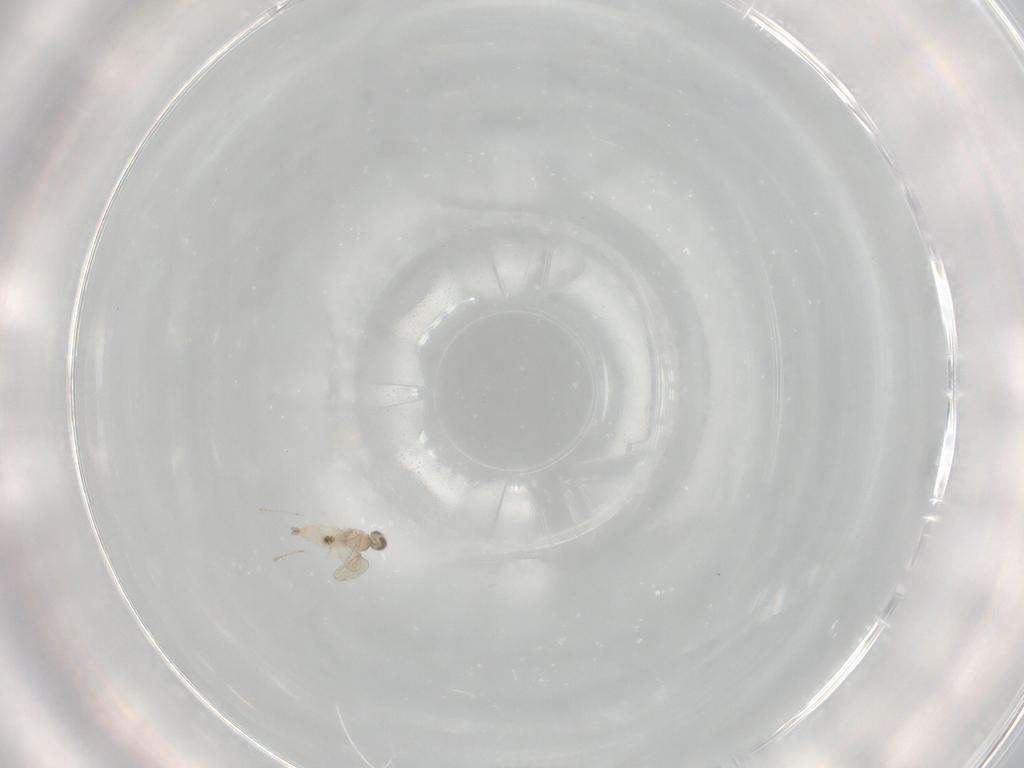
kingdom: Animalia
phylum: Arthropoda
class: Insecta
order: Diptera
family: Cecidomyiidae
